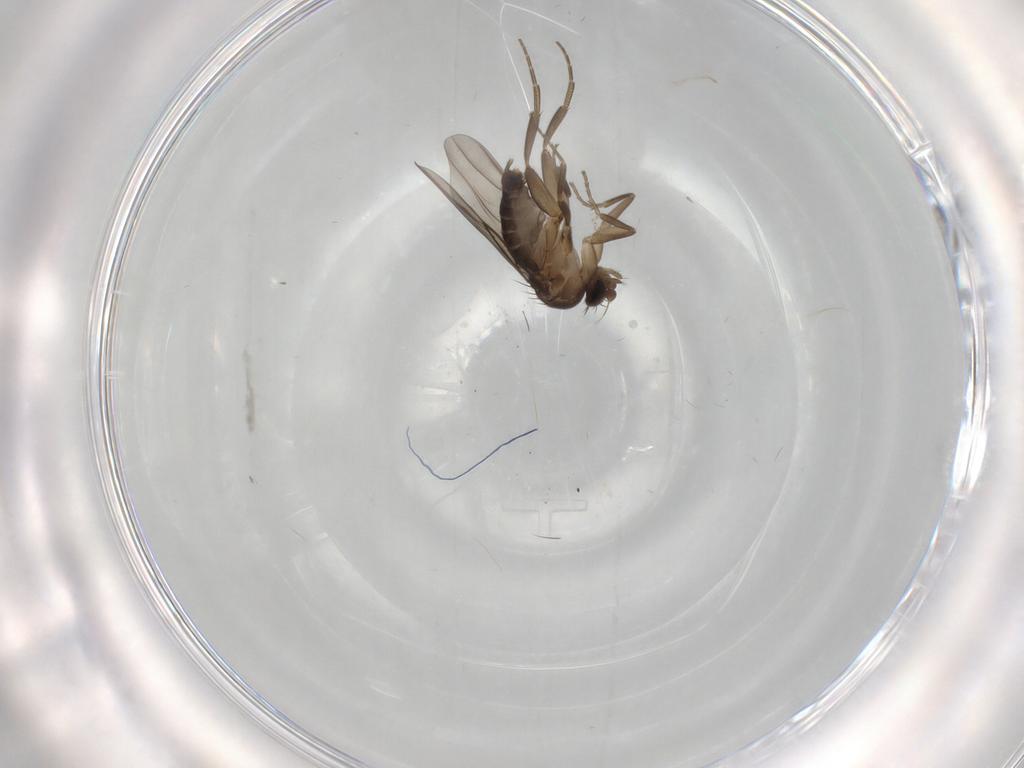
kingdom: Animalia
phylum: Arthropoda
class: Insecta
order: Diptera
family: Phoridae
